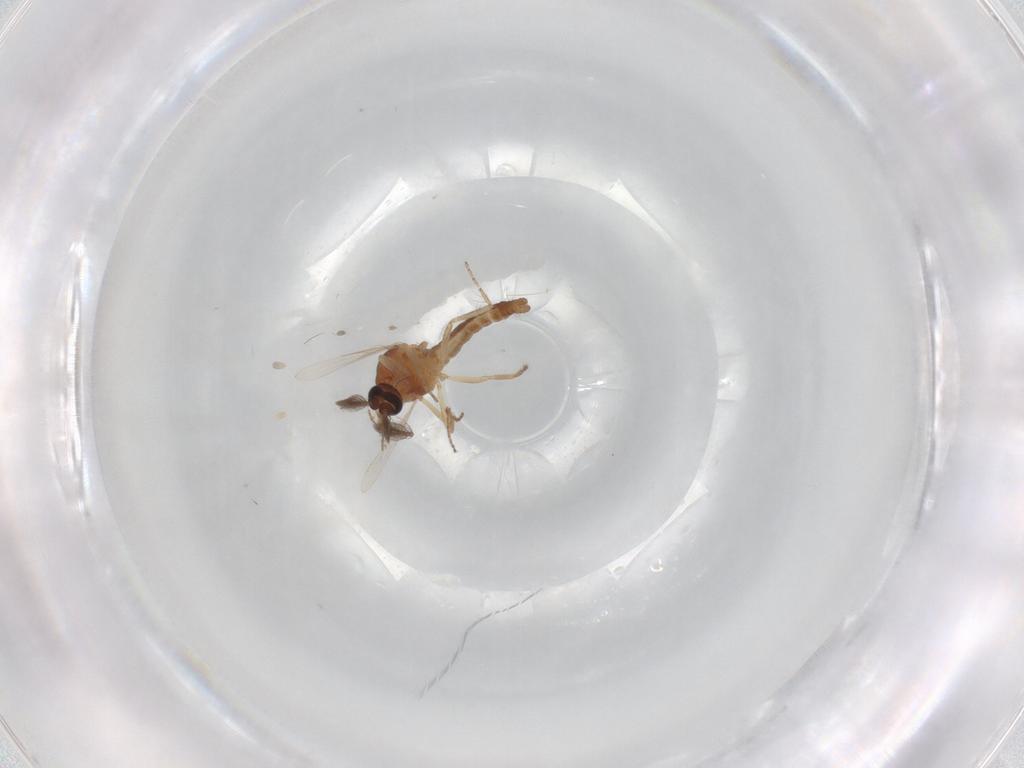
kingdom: Animalia
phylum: Arthropoda
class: Insecta
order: Diptera
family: Ceratopogonidae
